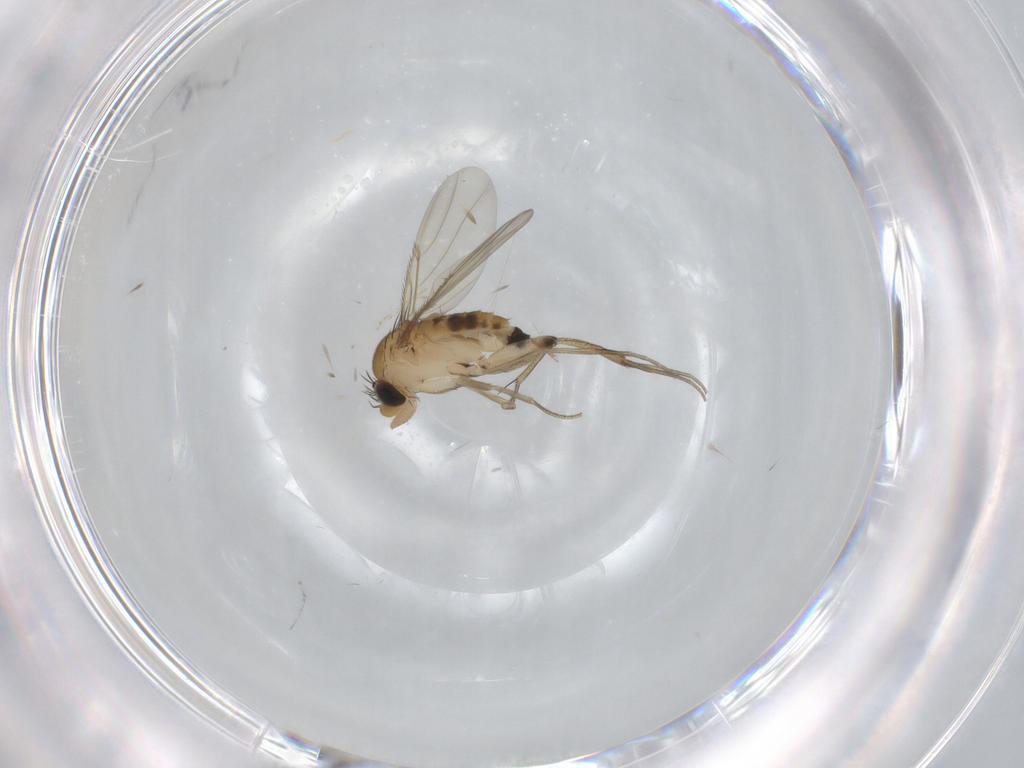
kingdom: Animalia
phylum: Arthropoda
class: Insecta
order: Diptera
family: Phoridae
